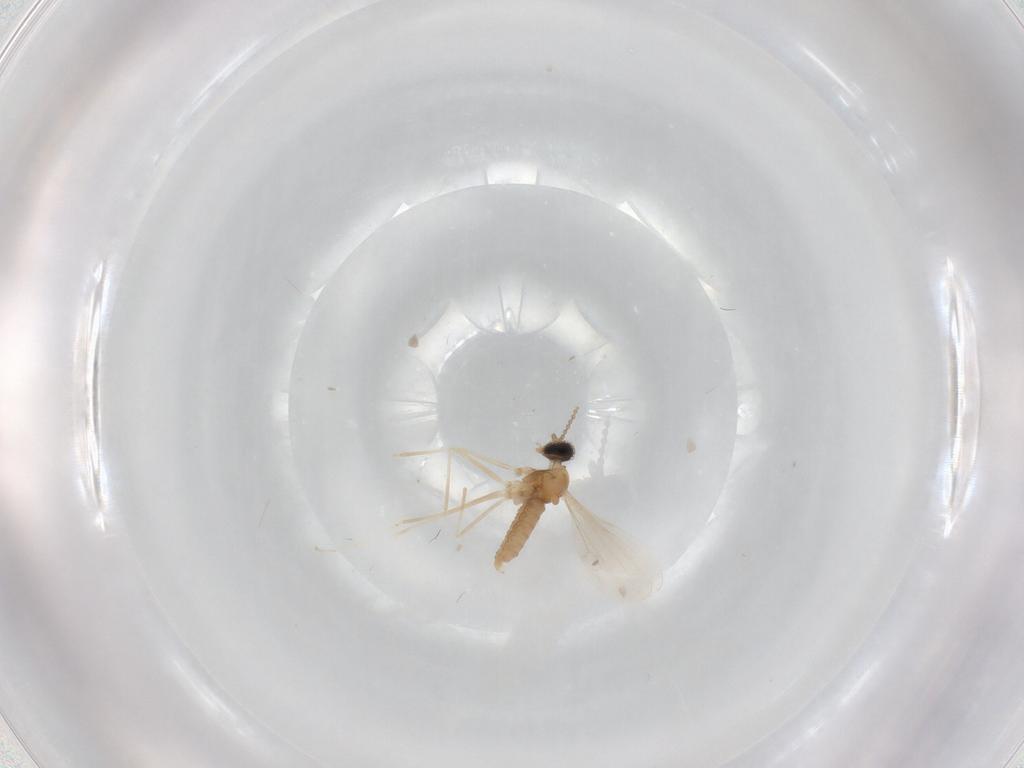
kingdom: Animalia
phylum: Arthropoda
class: Insecta
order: Diptera
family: Cecidomyiidae
